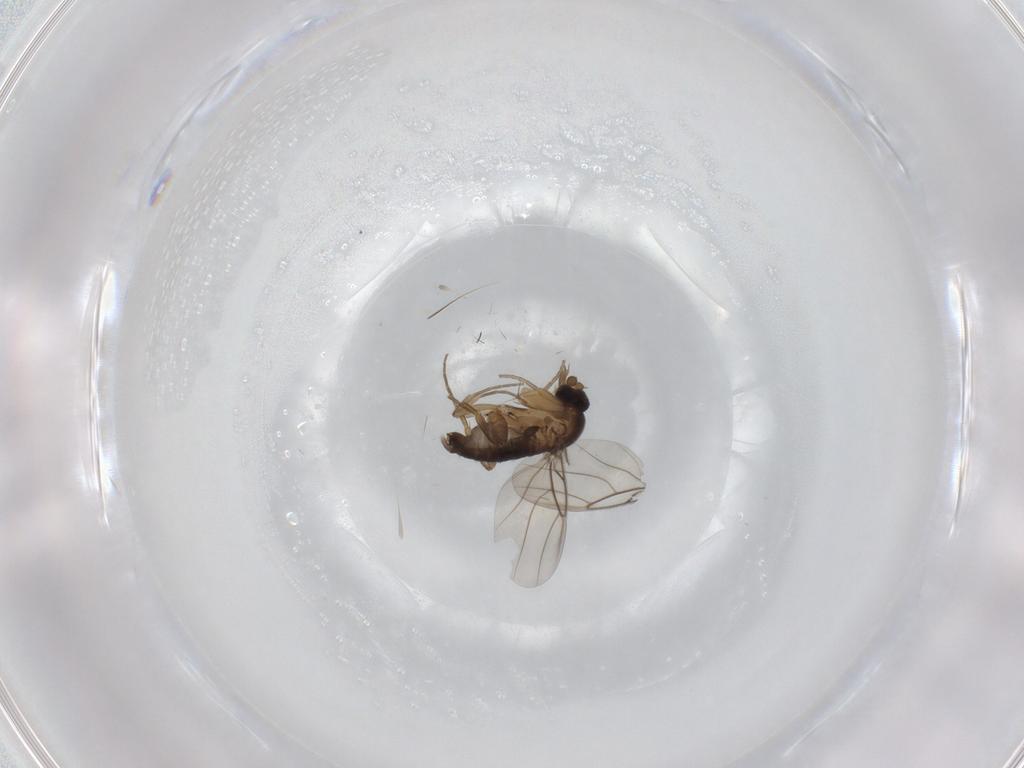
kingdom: Animalia
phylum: Arthropoda
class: Insecta
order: Diptera
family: Phoridae
